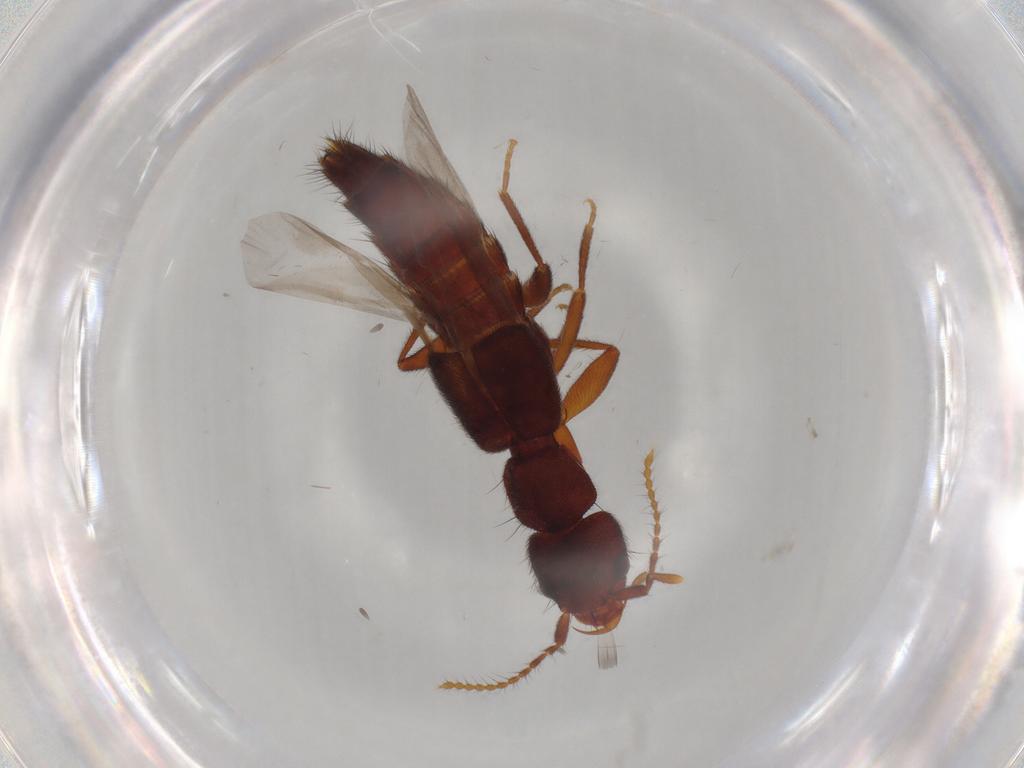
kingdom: Animalia
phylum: Arthropoda
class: Insecta
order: Coleoptera
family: Staphylinidae
